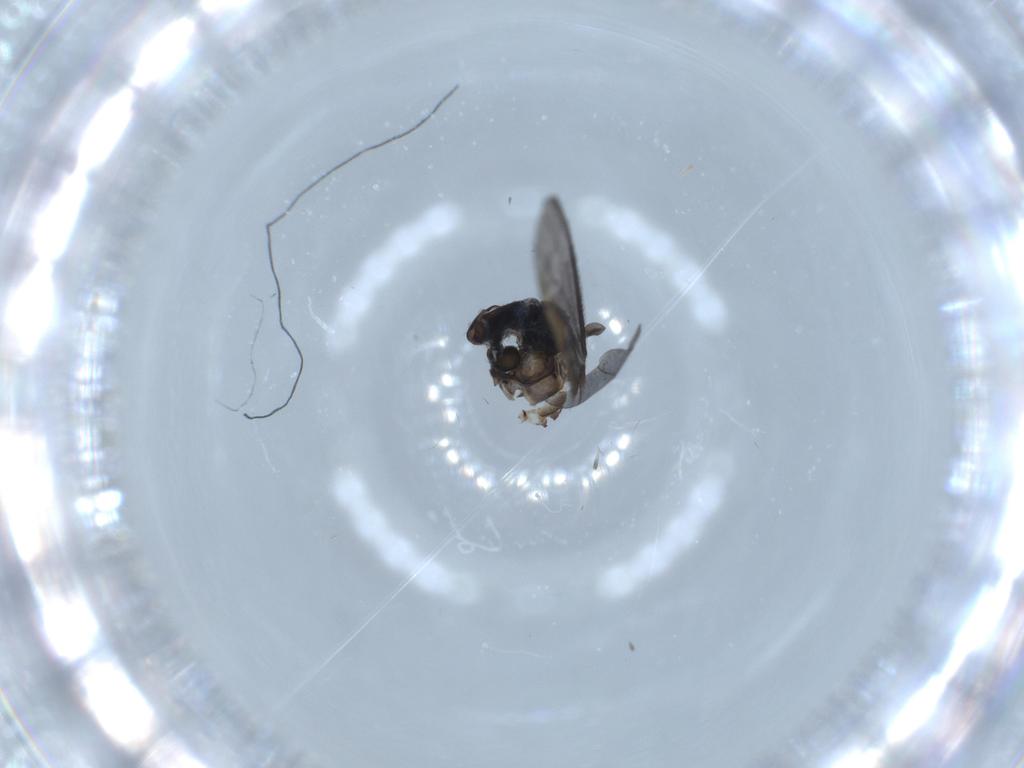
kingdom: Animalia
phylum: Arthropoda
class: Insecta
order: Diptera
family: Sciaridae
